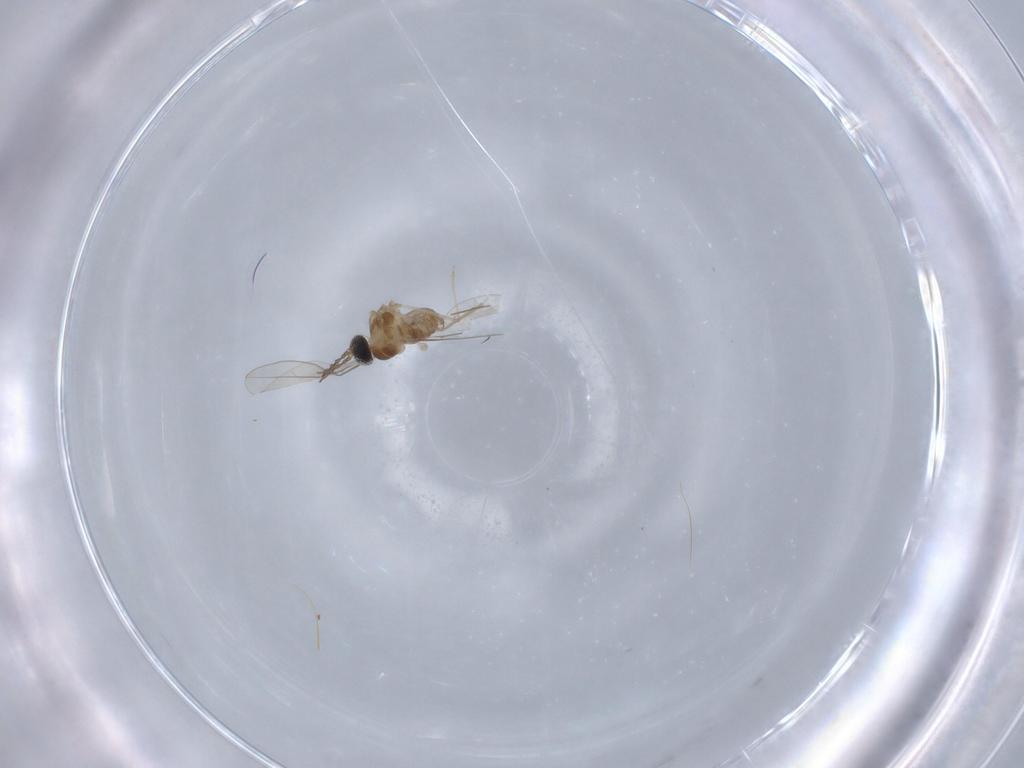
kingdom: Animalia
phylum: Arthropoda
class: Insecta
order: Diptera
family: Cecidomyiidae
